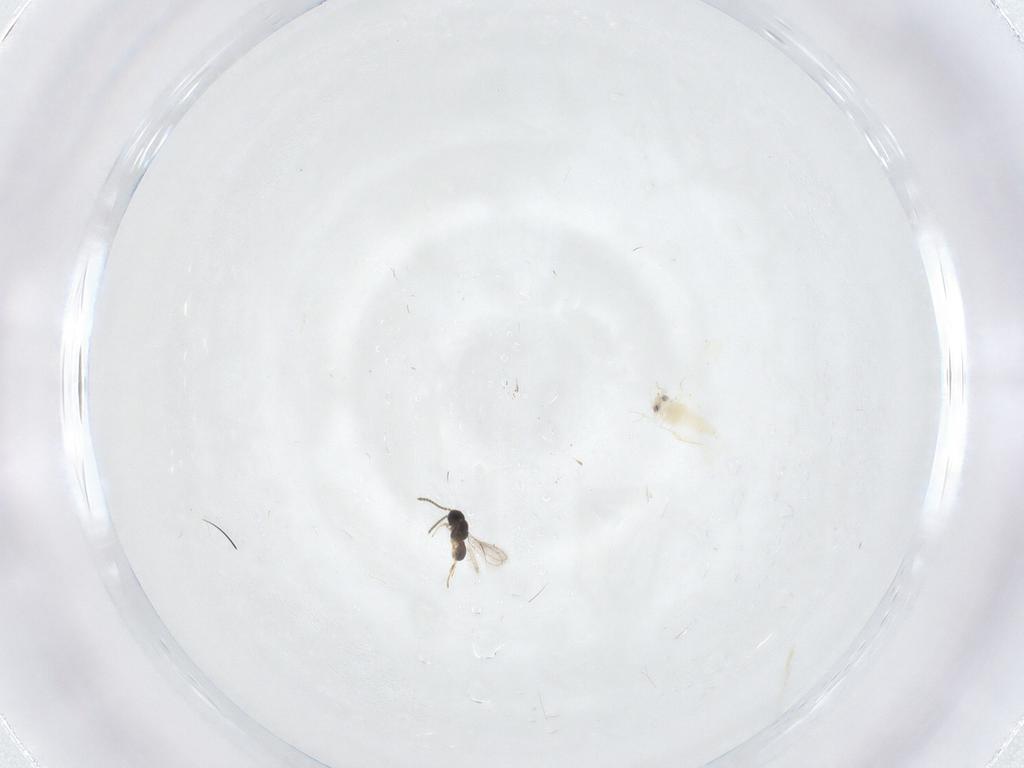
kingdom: Animalia
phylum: Arthropoda
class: Insecta
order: Hymenoptera
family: Scelionidae
